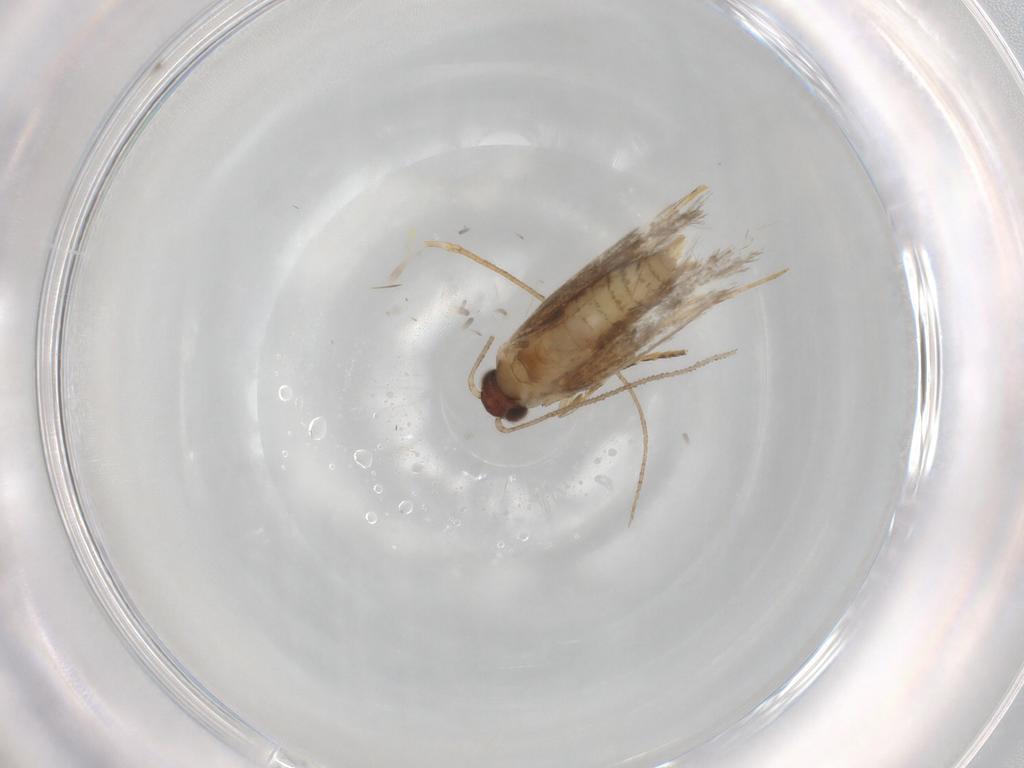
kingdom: Animalia
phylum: Arthropoda
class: Insecta
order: Lepidoptera
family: Gelechiidae
